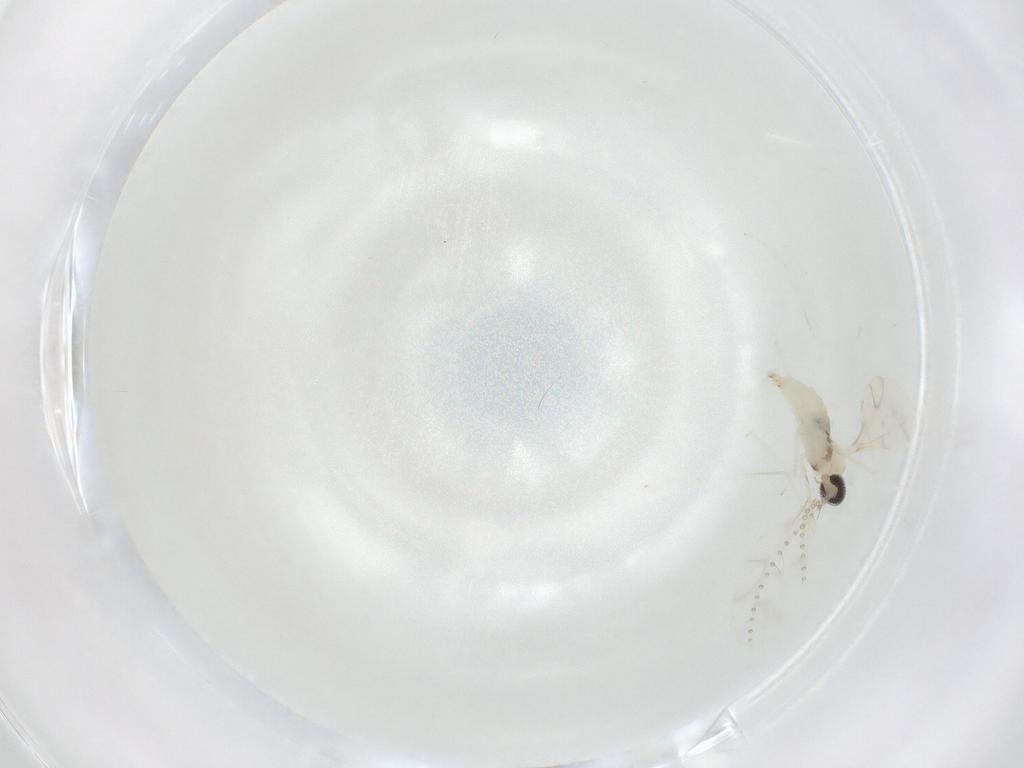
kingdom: Animalia
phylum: Arthropoda
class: Insecta
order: Diptera
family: Cecidomyiidae
